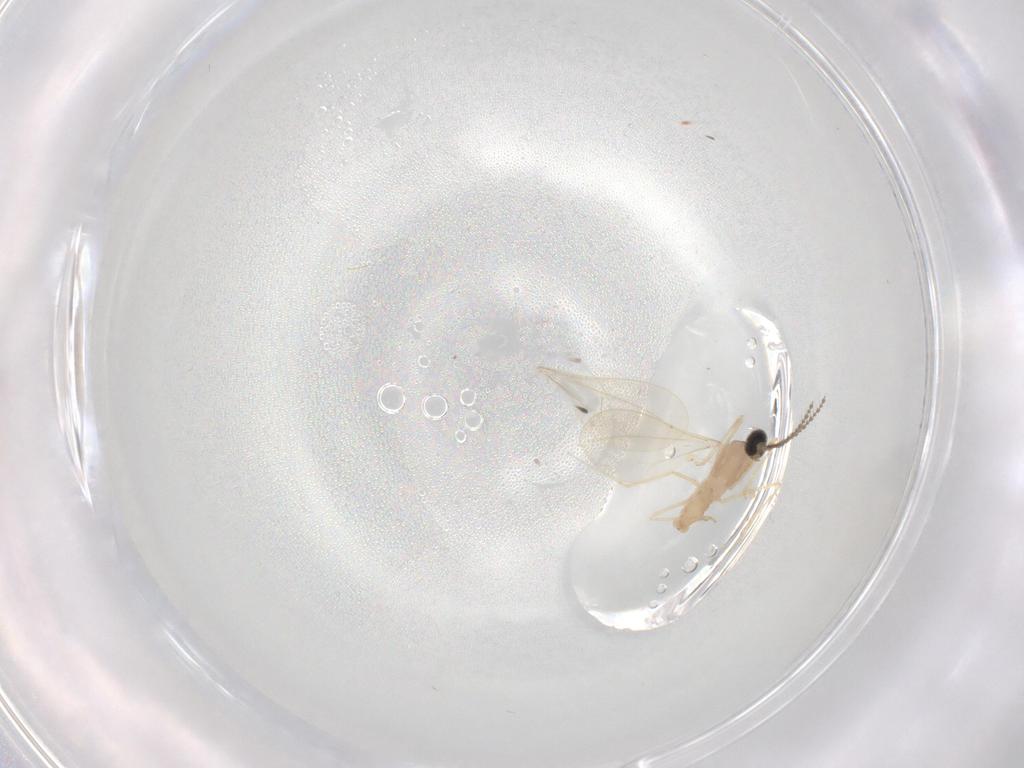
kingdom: Animalia
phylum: Arthropoda
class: Insecta
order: Diptera
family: Cecidomyiidae
